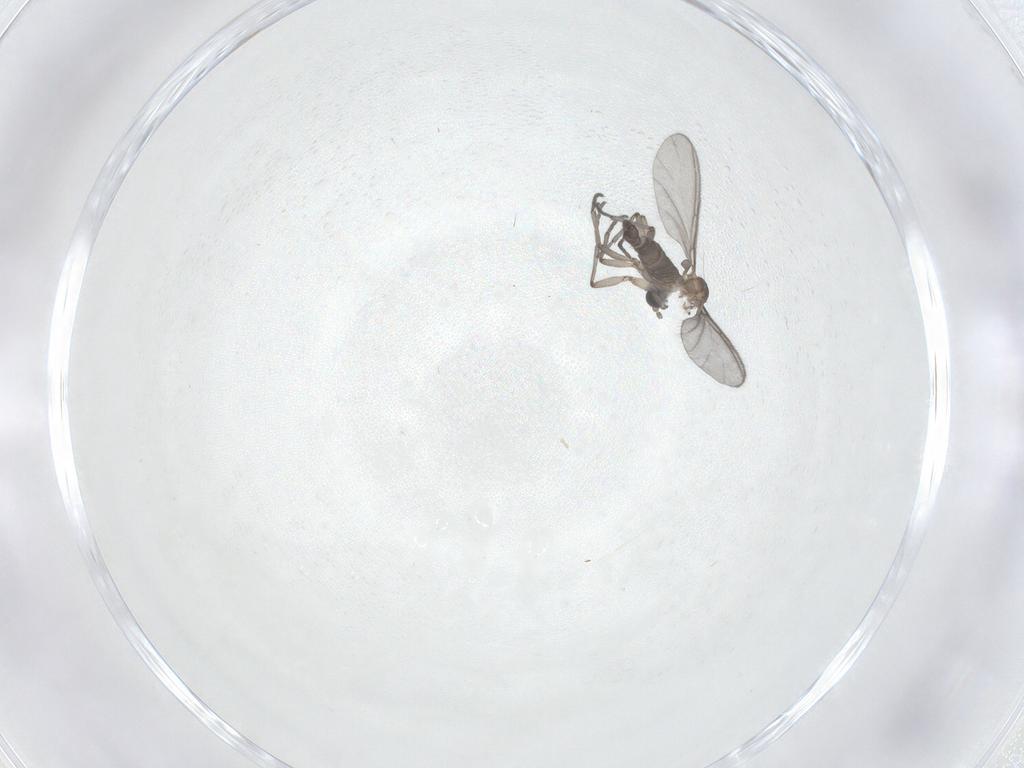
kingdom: Animalia
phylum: Arthropoda
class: Insecta
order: Diptera
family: Sciaridae
